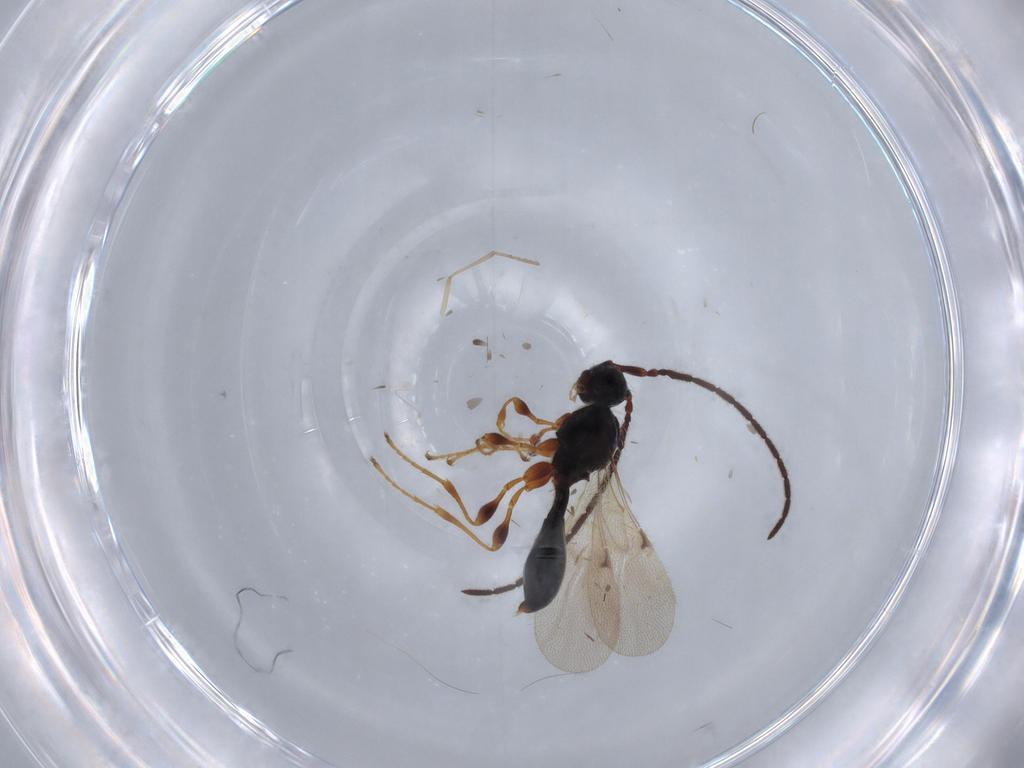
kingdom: Animalia
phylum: Arthropoda
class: Insecta
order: Hymenoptera
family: Diapriidae
